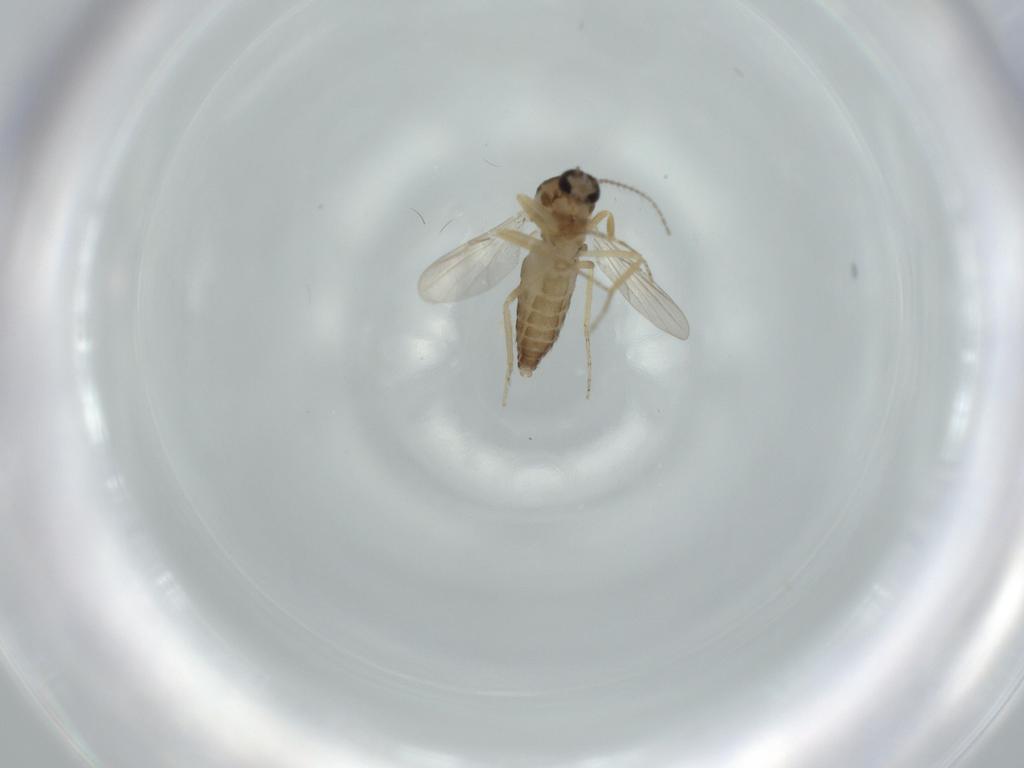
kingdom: Animalia
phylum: Arthropoda
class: Insecta
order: Diptera
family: Ceratopogonidae
